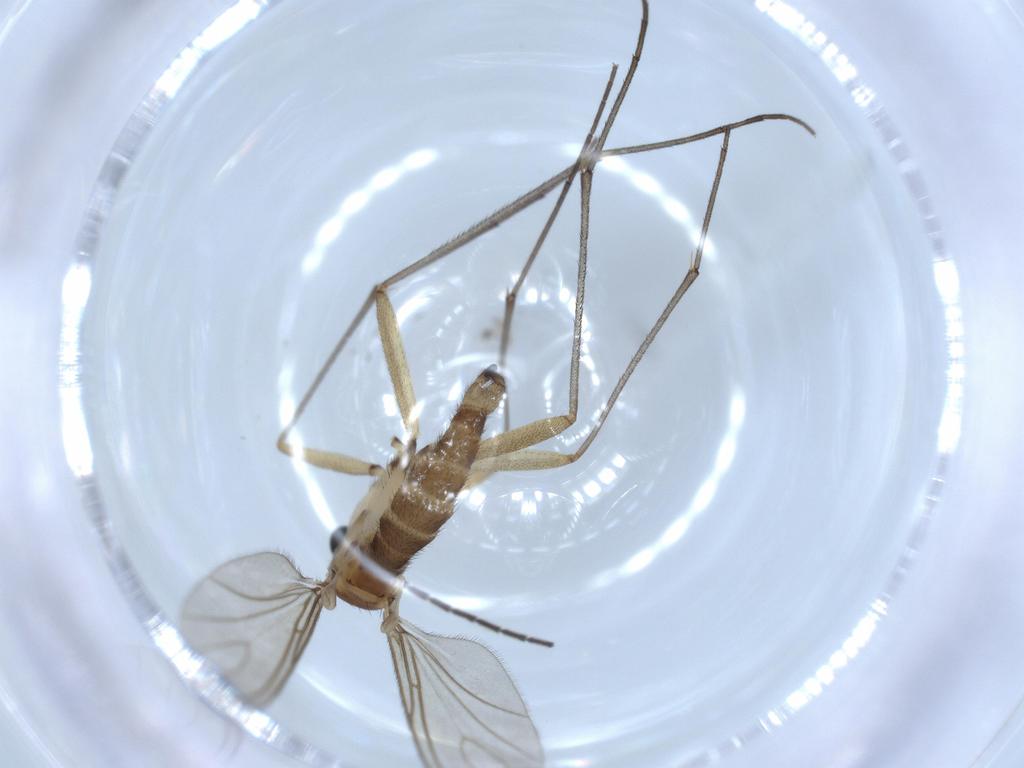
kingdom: Animalia
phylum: Arthropoda
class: Insecta
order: Diptera
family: Sciaridae
